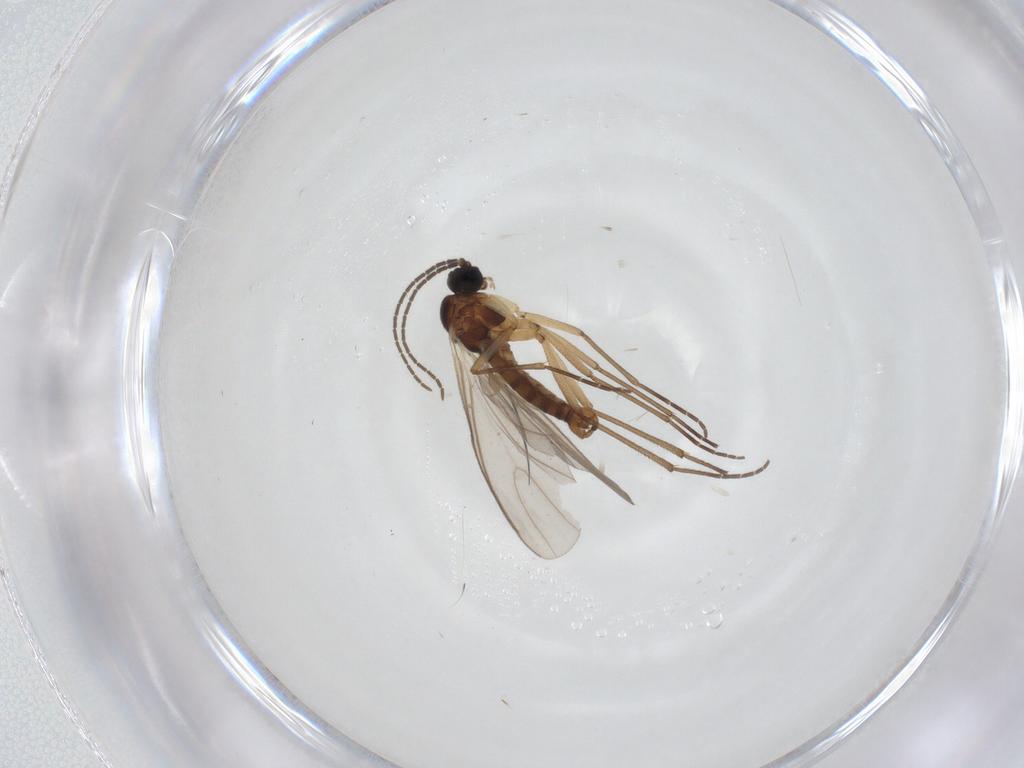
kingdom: Animalia
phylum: Arthropoda
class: Insecta
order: Diptera
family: Sciaridae
